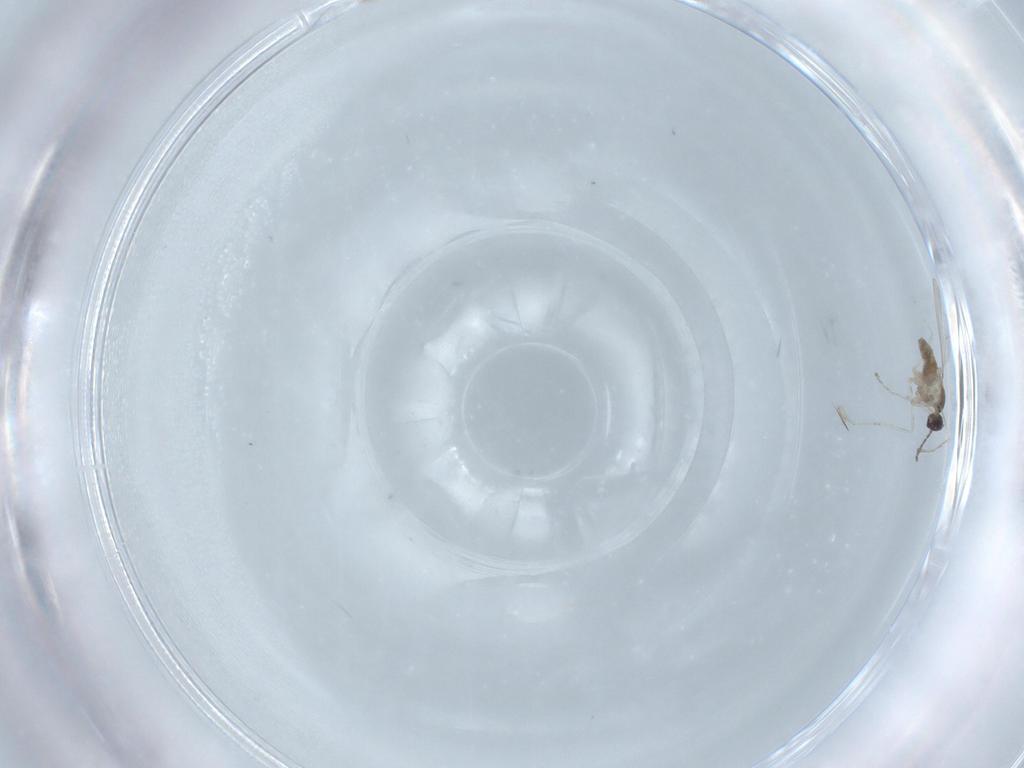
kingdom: Animalia
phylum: Arthropoda
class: Insecta
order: Diptera
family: Cecidomyiidae
